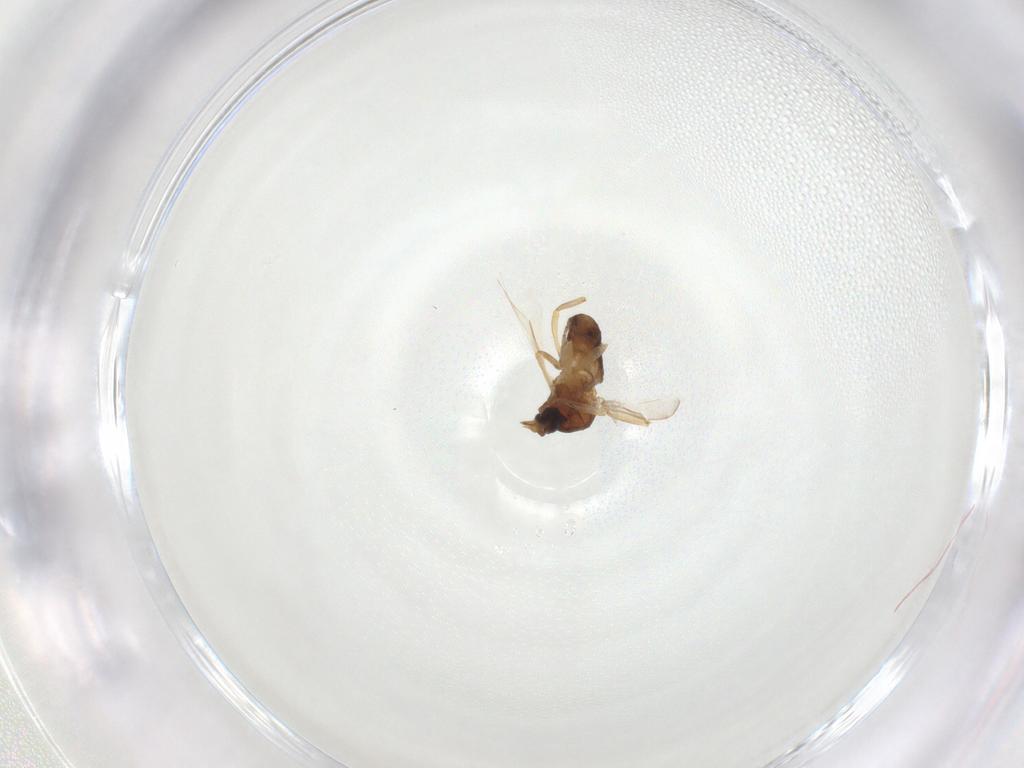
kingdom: Animalia
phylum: Arthropoda
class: Insecta
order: Diptera
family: Ceratopogonidae
